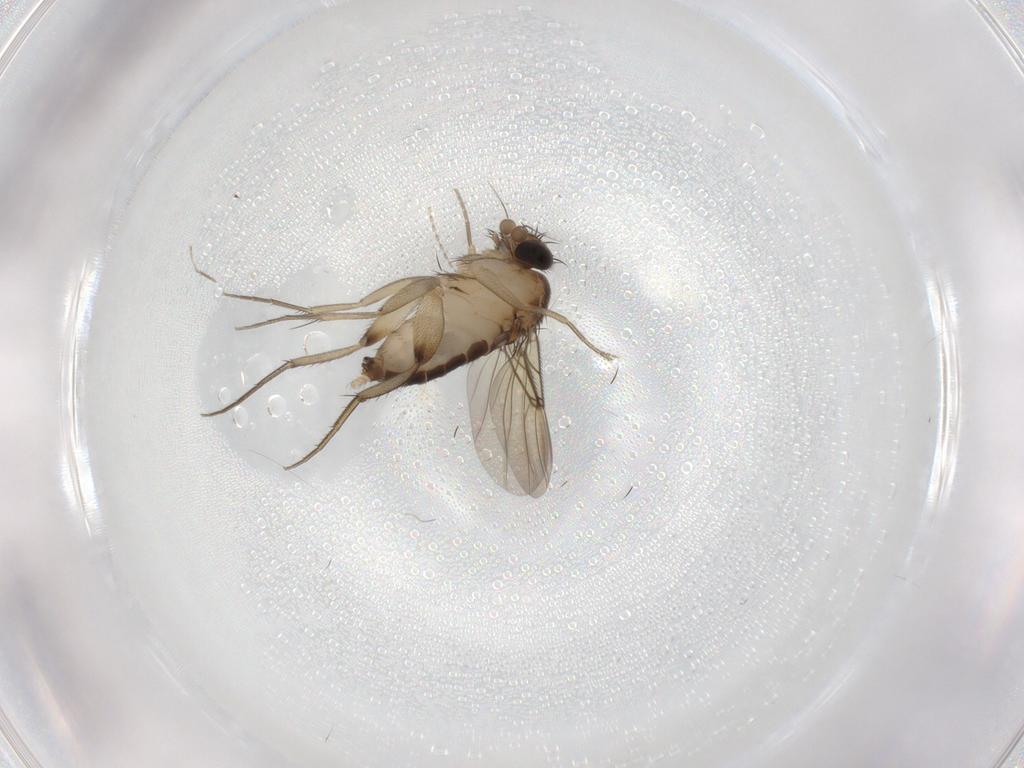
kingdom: Animalia
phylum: Arthropoda
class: Insecta
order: Diptera
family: Phoridae
